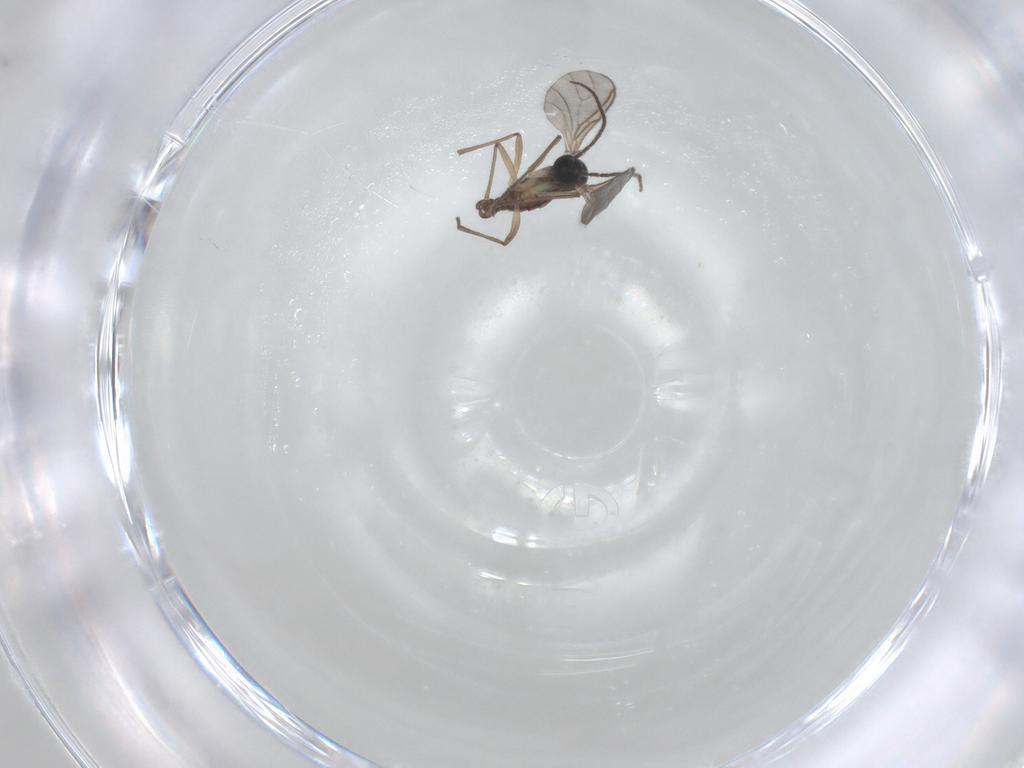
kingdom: Animalia
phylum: Arthropoda
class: Insecta
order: Diptera
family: Sciaridae
